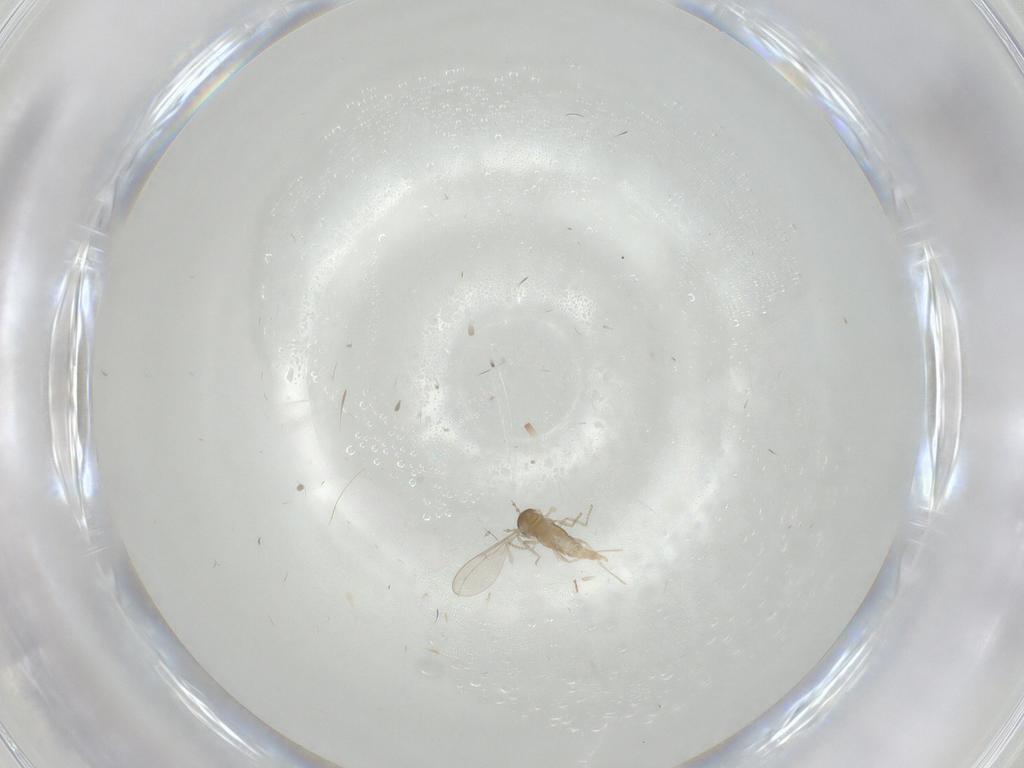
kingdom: Animalia
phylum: Arthropoda
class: Insecta
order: Diptera
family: Cecidomyiidae
